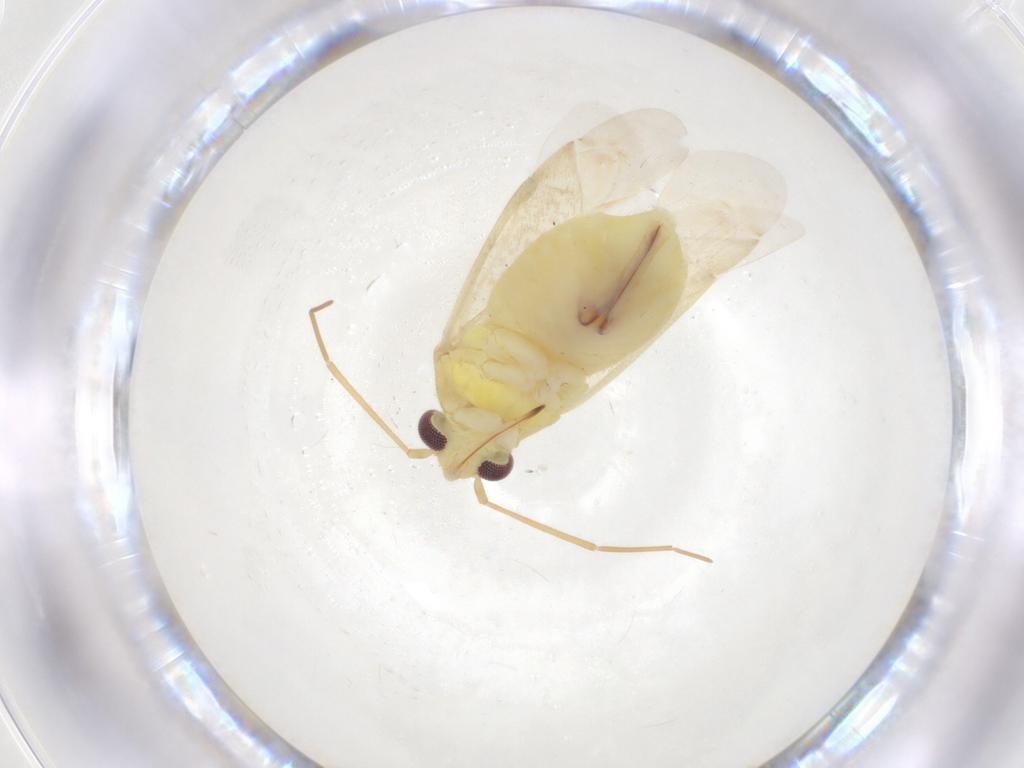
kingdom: Animalia
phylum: Arthropoda
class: Insecta
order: Hemiptera
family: Miridae
